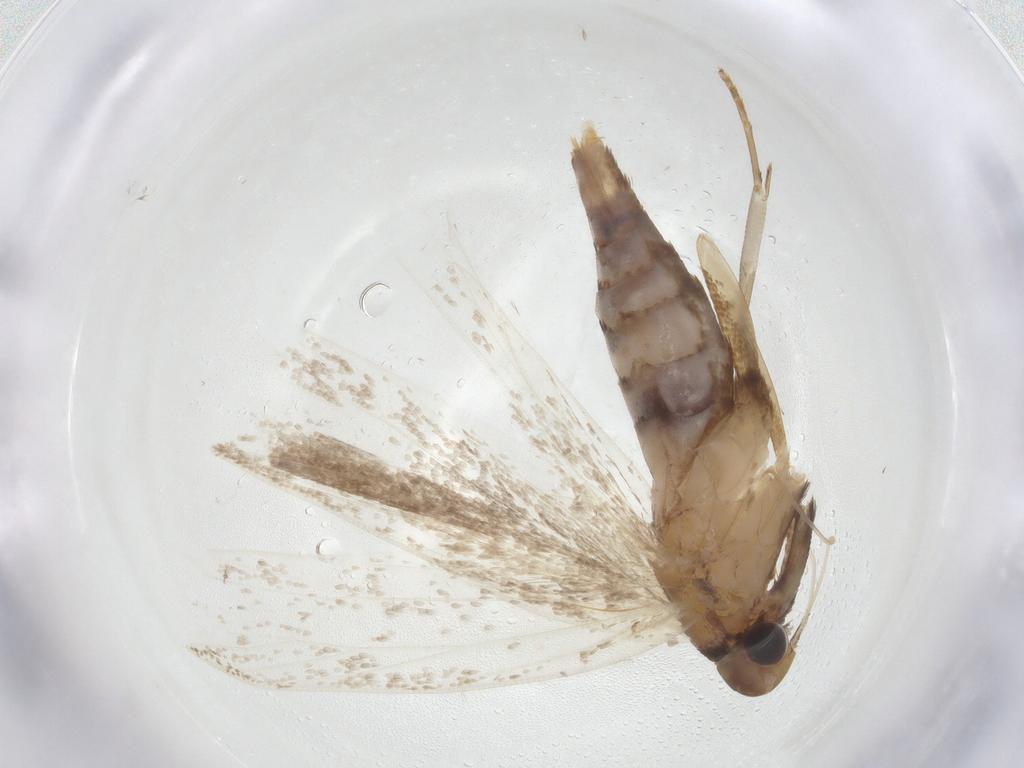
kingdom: Animalia
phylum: Arthropoda
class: Insecta
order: Lepidoptera
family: Gelechiidae
